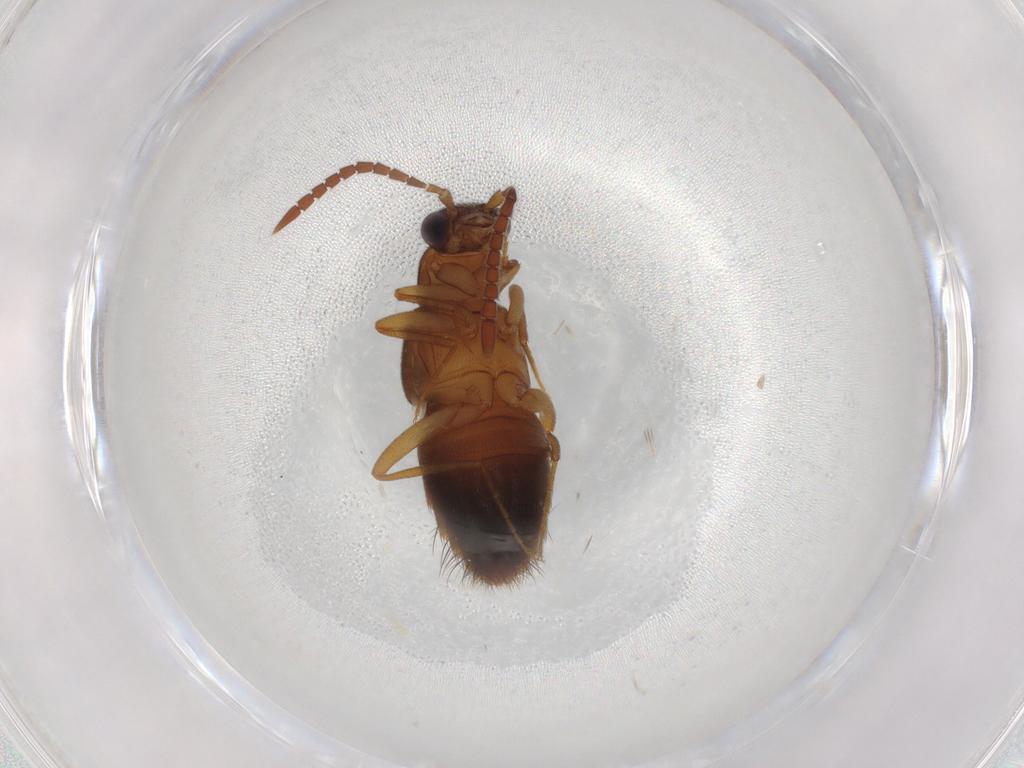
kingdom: Animalia
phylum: Arthropoda
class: Insecta
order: Coleoptera
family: Staphylinidae
